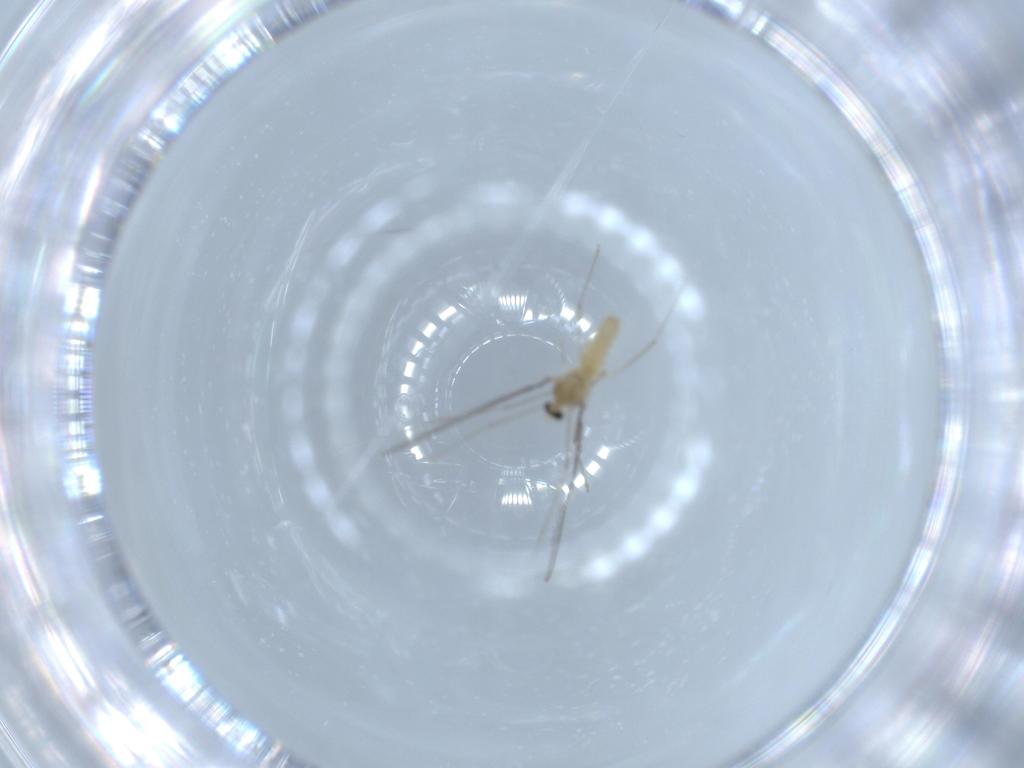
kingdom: Animalia
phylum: Arthropoda
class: Insecta
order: Diptera
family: Cecidomyiidae
